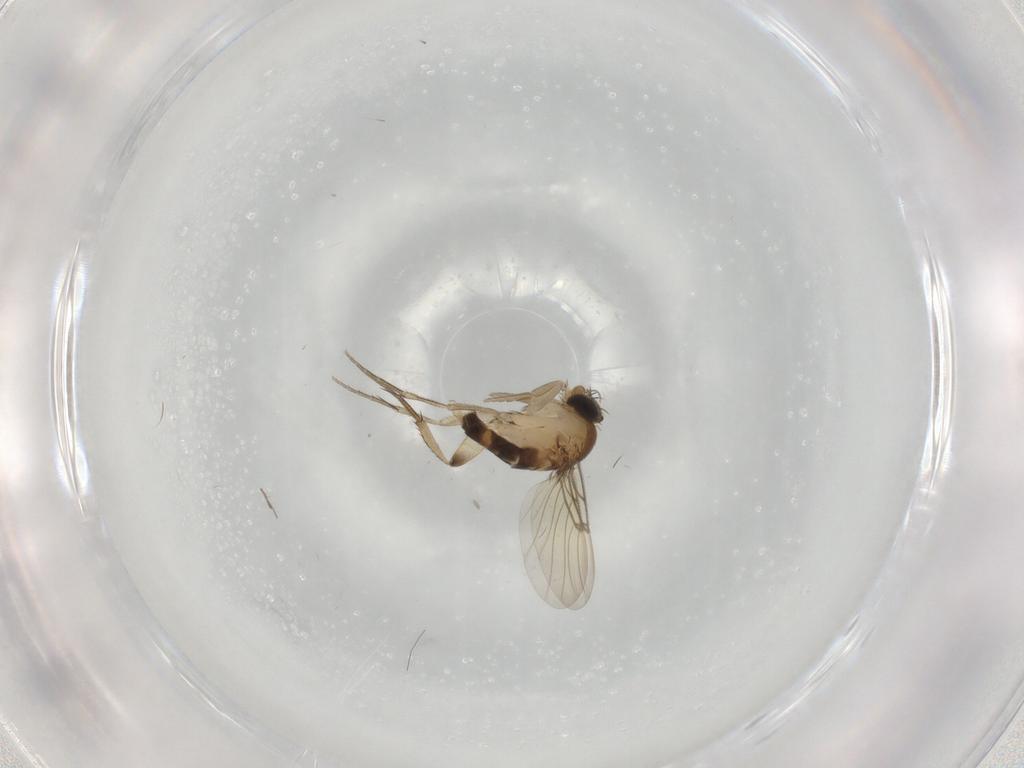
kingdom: Animalia
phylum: Arthropoda
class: Insecta
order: Diptera
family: Phoridae
